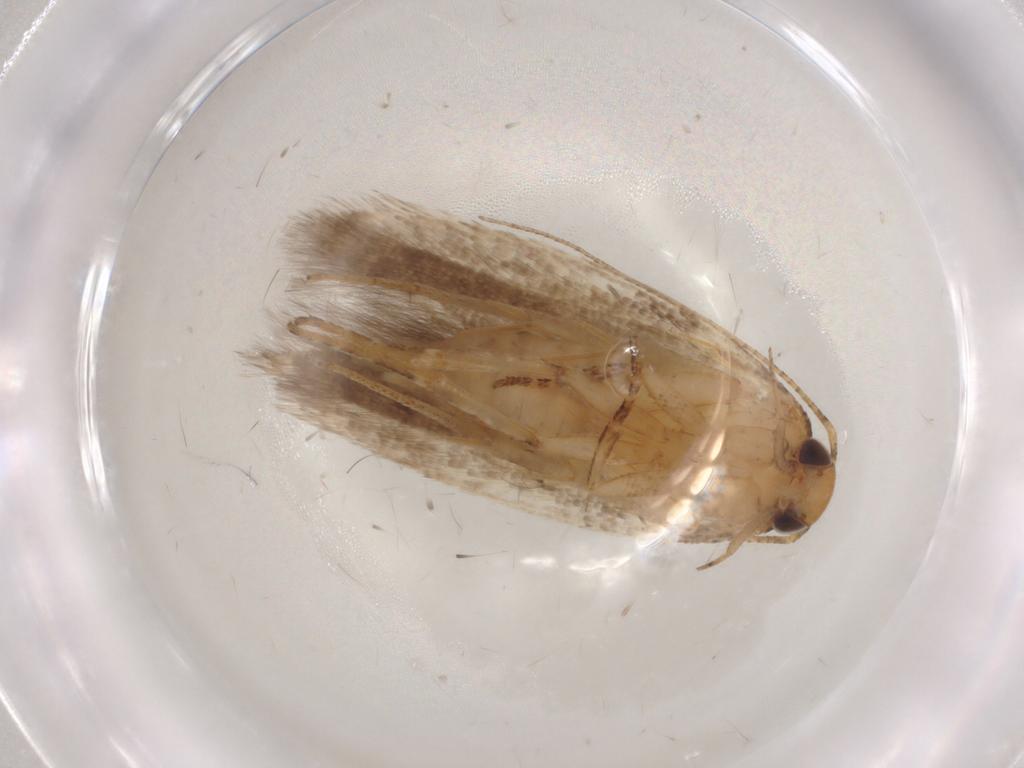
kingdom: Animalia
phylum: Arthropoda
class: Insecta
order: Lepidoptera
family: Gelechiidae
